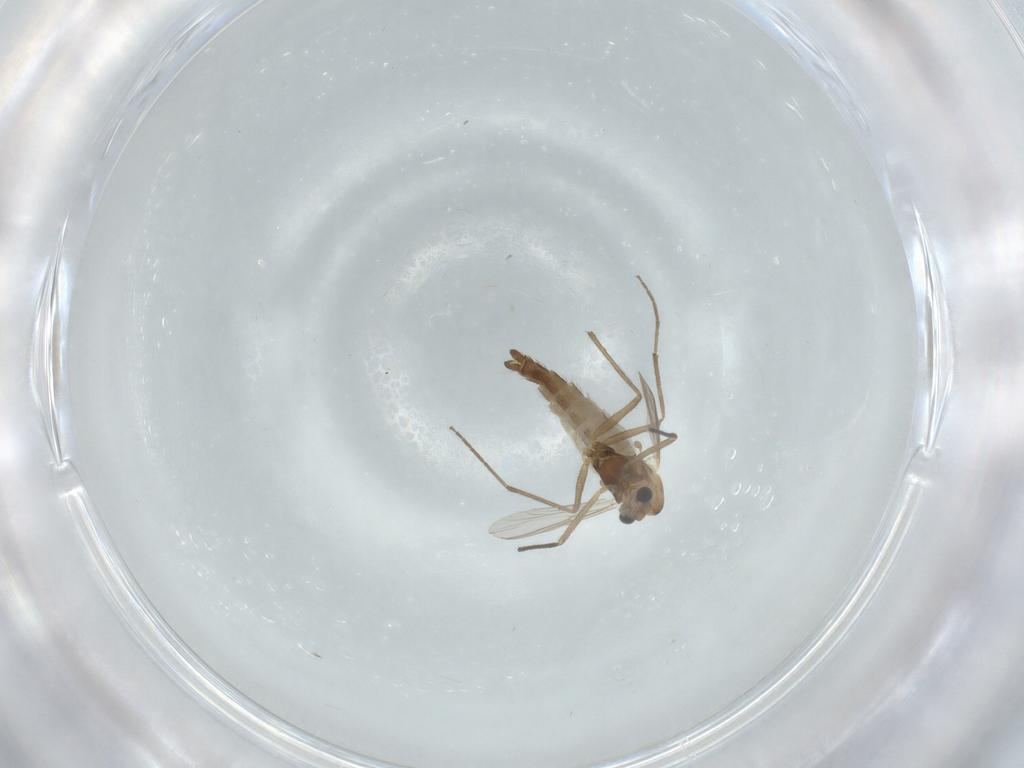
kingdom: Animalia
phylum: Arthropoda
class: Insecta
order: Diptera
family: Chironomidae
